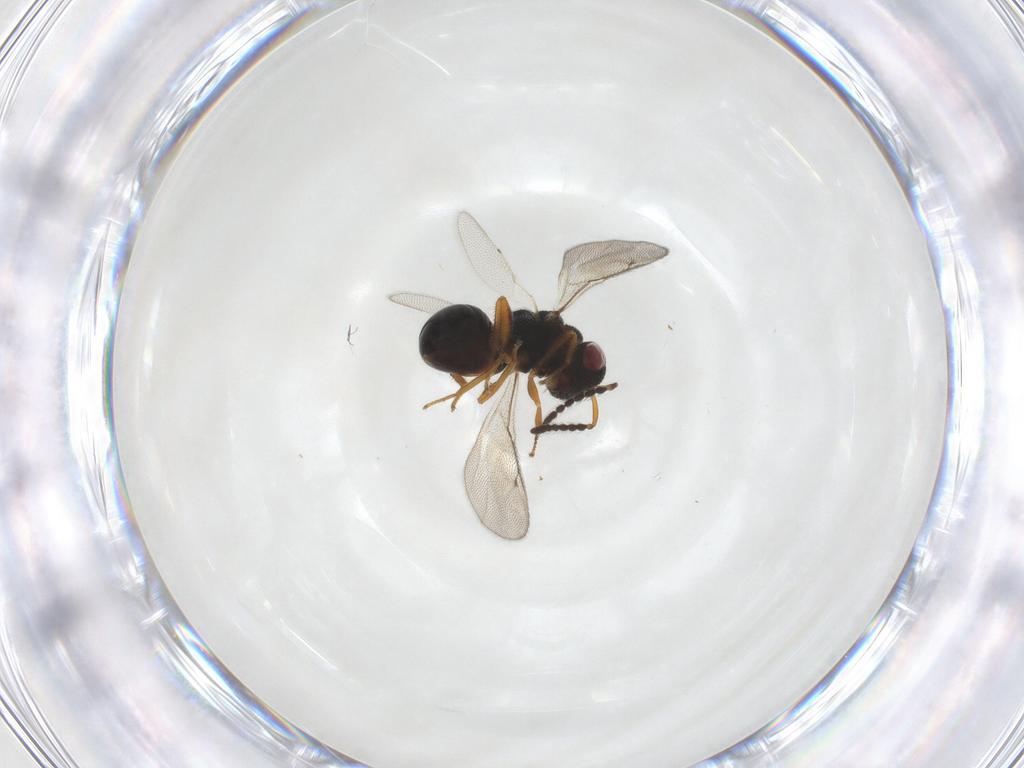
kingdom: Animalia
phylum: Arthropoda
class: Insecta
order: Hymenoptera
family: Eurytomidae
